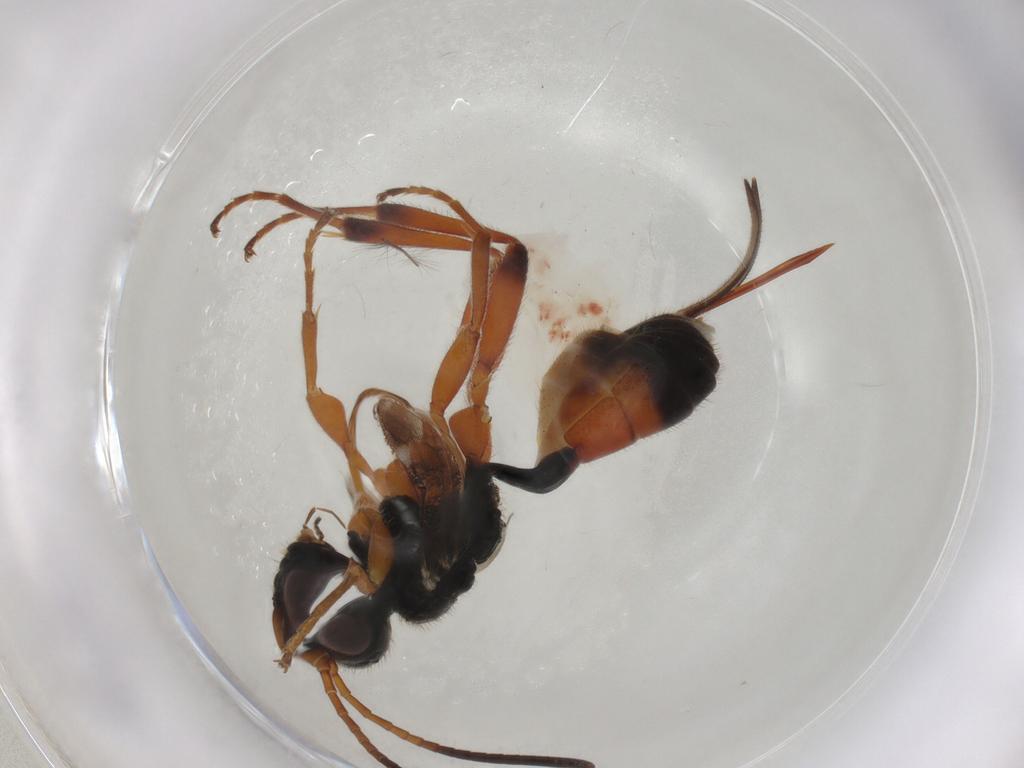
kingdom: Animalia
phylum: Arthropoda
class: Insecta
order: Hymenoptera
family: Ichneumonidae
